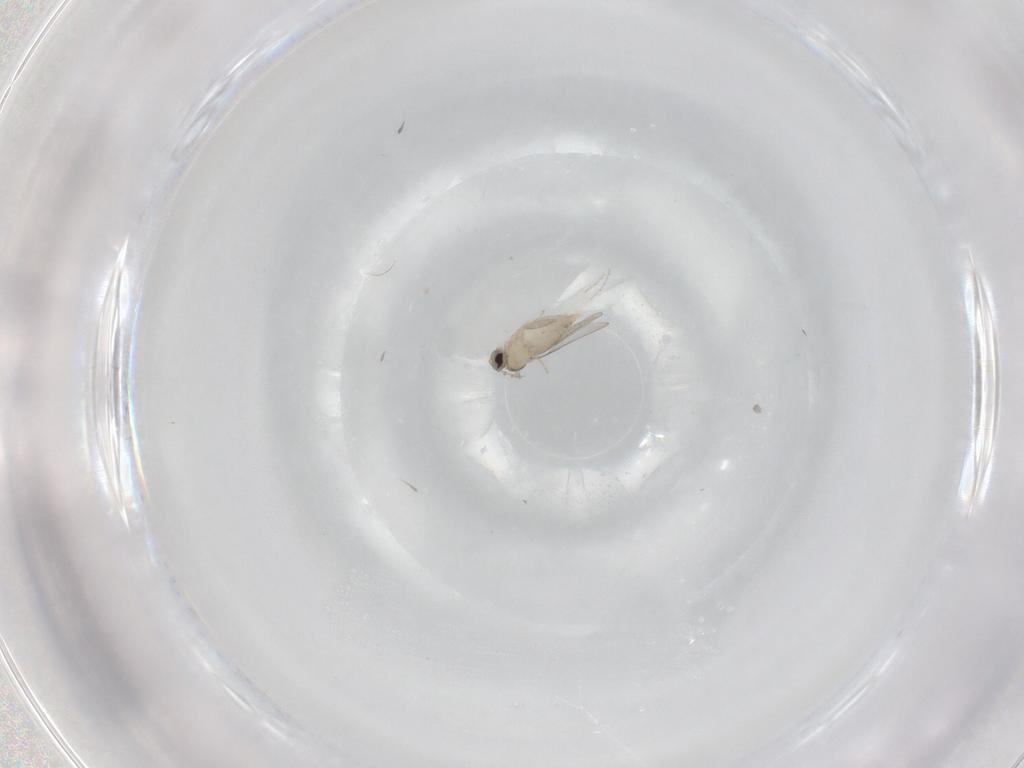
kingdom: Animalia
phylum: Arthropoda
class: Insecta
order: Diptera
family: Cecidomyiidae
